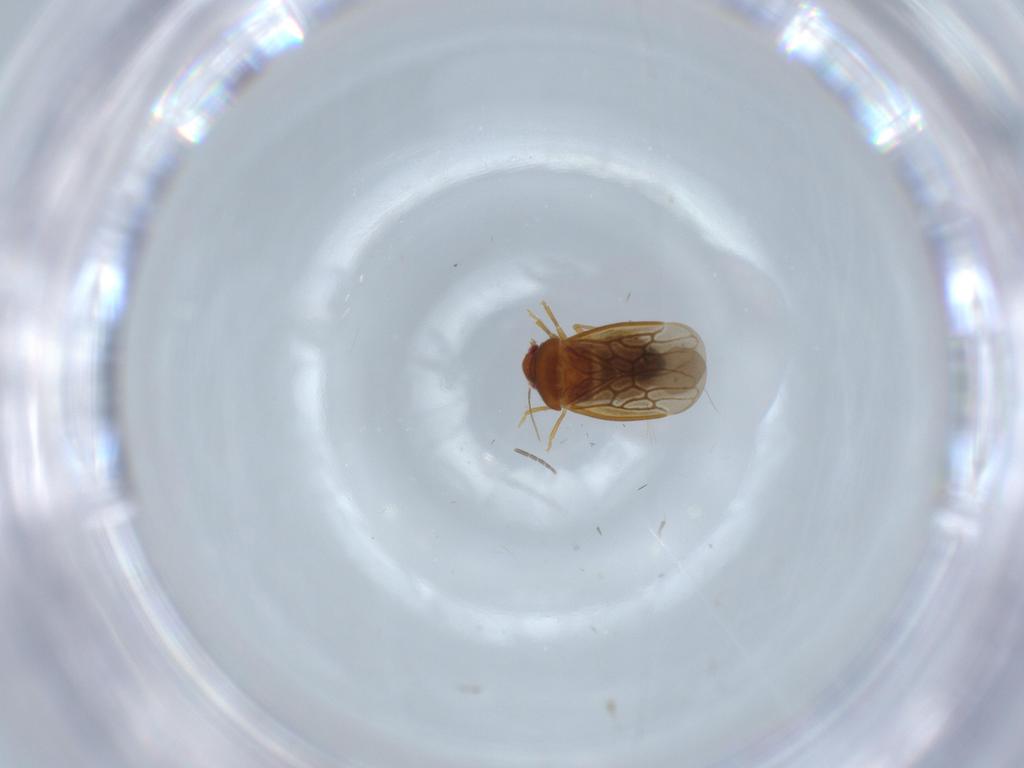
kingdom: Animalia
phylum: Arthropoda
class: Insecta
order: Hemiptera
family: Schizopteridae
